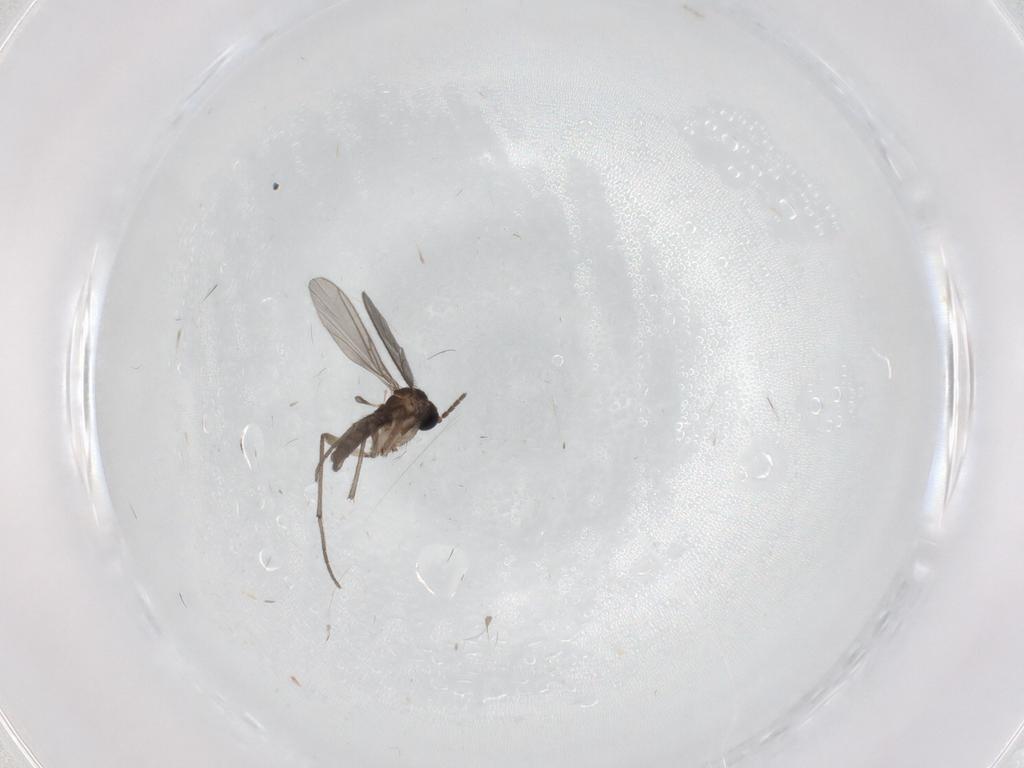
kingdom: Animalia
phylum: Arthropoda
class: Insecta
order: Diptera
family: Sciaridae
